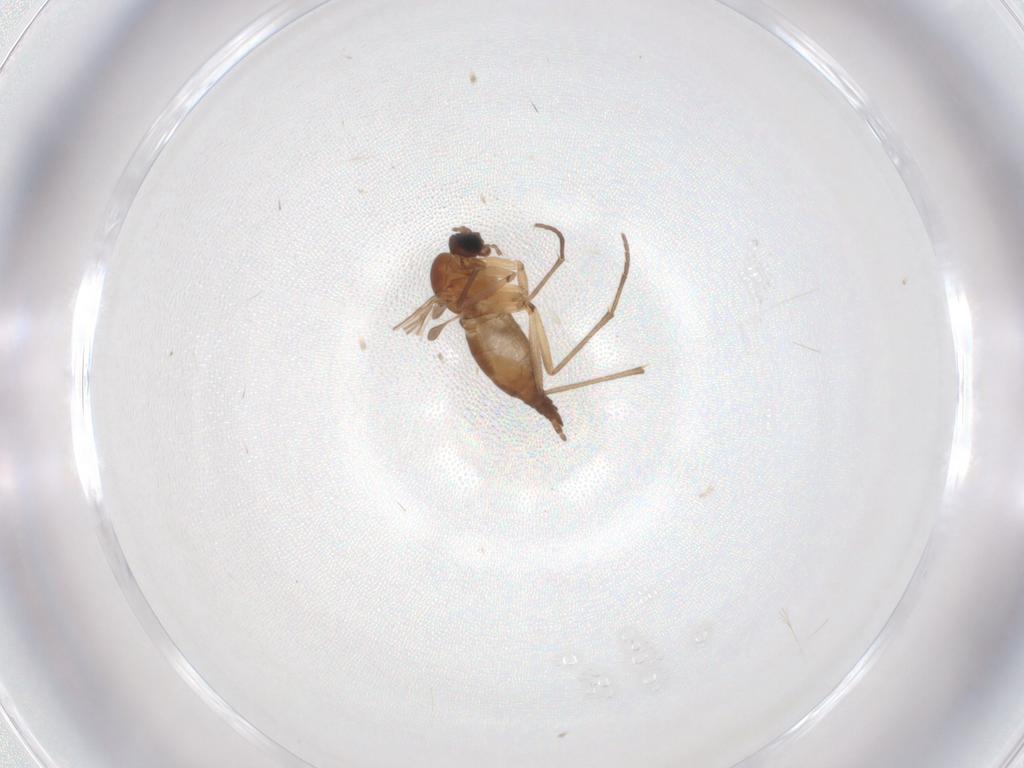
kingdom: Animalia
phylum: Arthropoda
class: Insecta
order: Diptera
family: Sciaridae
